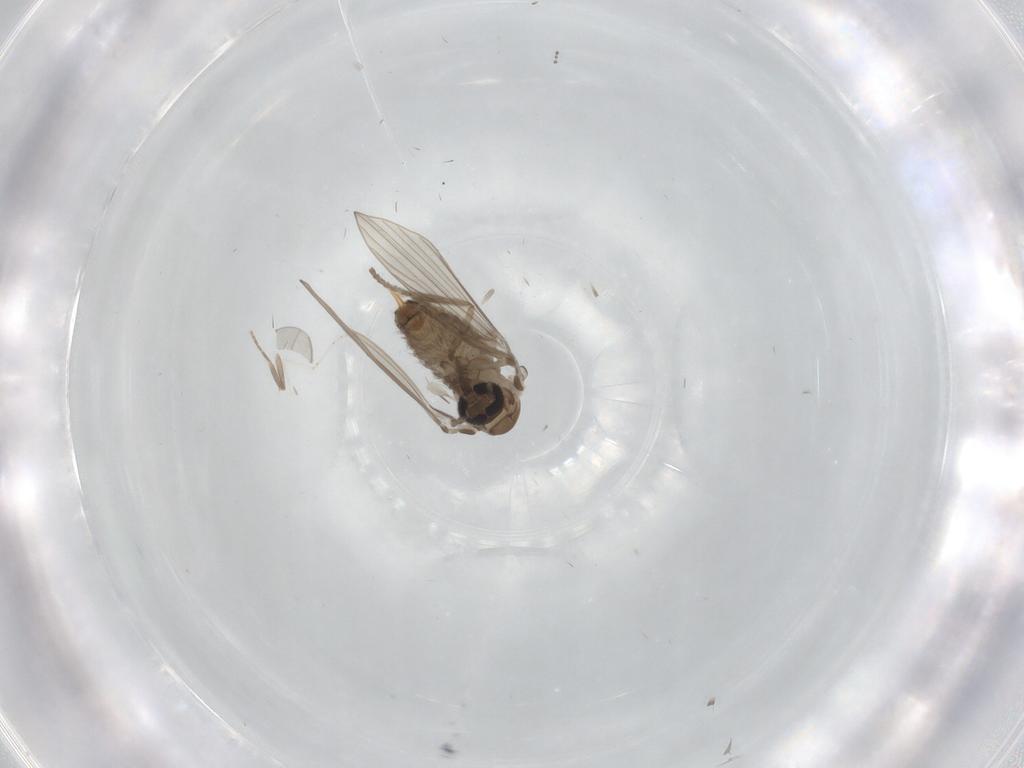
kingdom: Animalia
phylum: Arthropoda
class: Insecta
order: Diptera
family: Psychodidae
